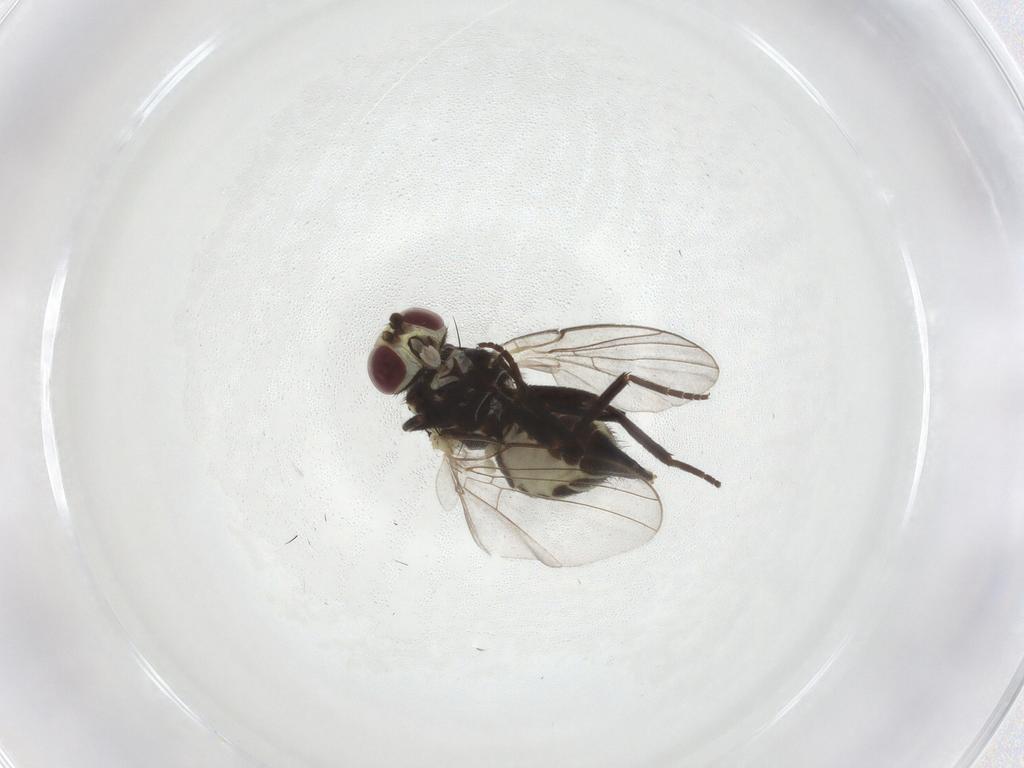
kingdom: Animalia
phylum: Arthropoda
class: Insecta
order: Diptera
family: Agromyzidae
